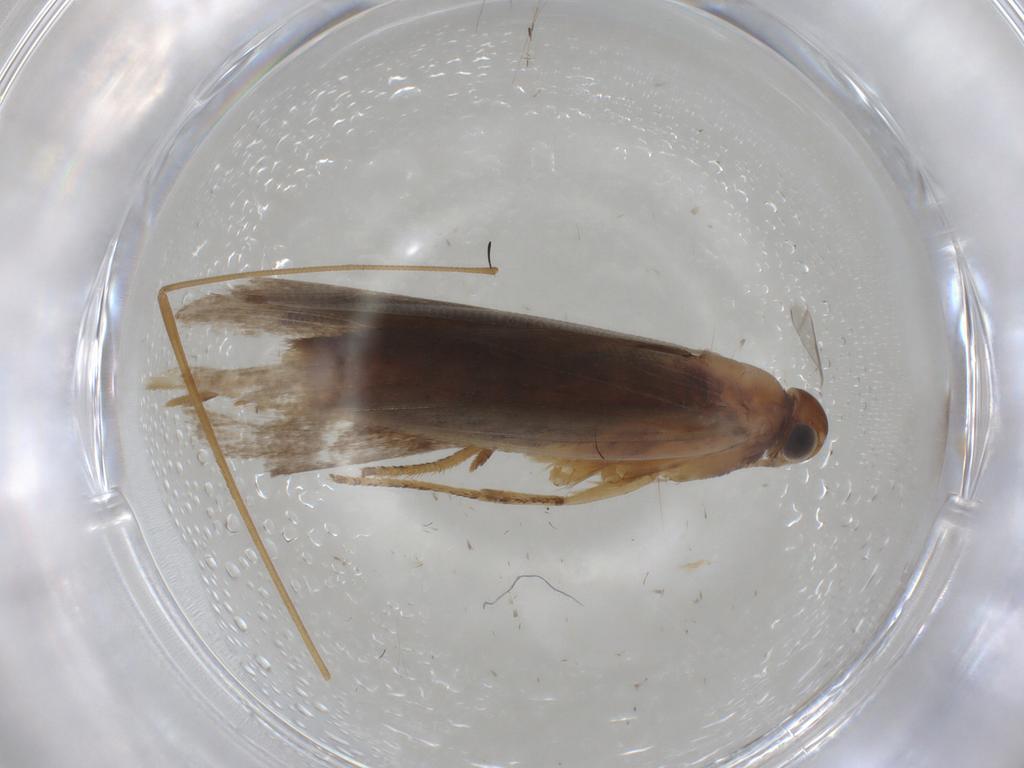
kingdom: Animalia
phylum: Arthropoda
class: Insecta
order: Lepidoptera
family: Gelechiidae
